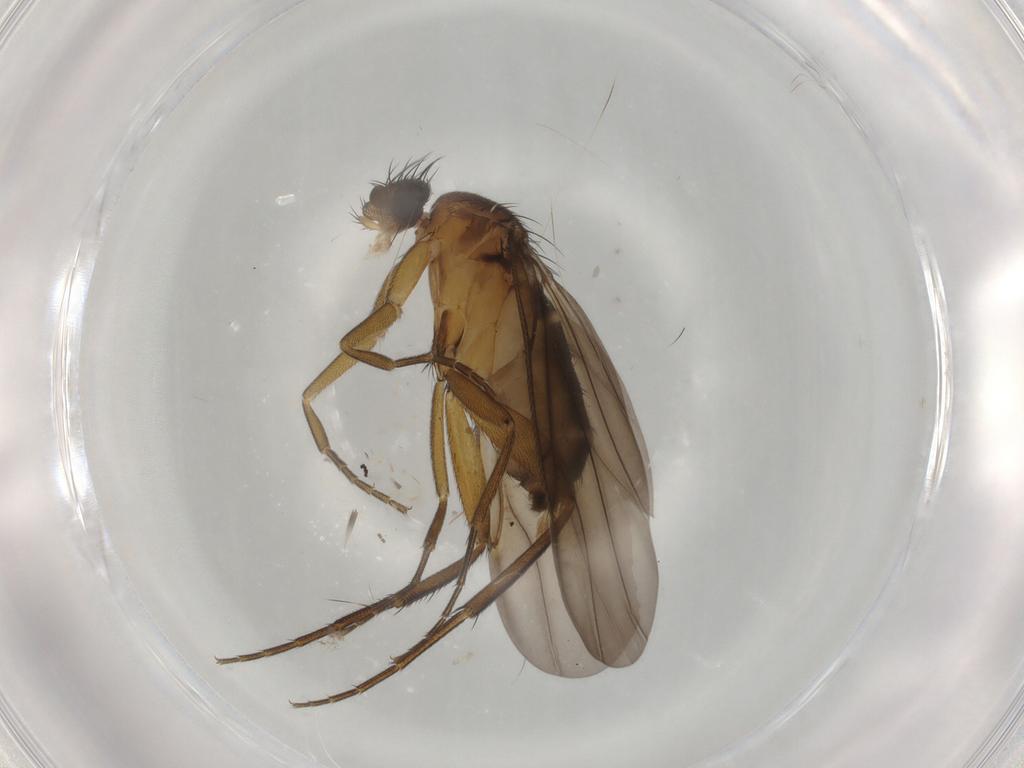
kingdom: Animalia
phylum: Arthropoda
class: Insecta
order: Diptera
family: Phoridae
